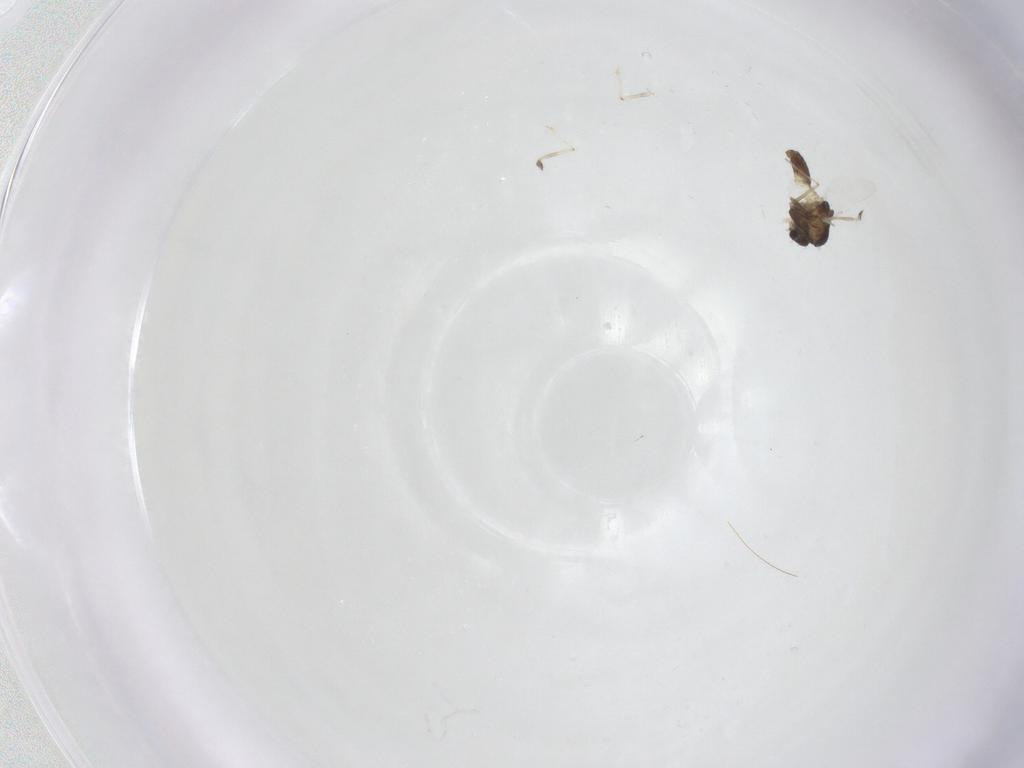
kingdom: Animalia
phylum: Arthropoda
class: Insecta
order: Diptera
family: Chironomidae
